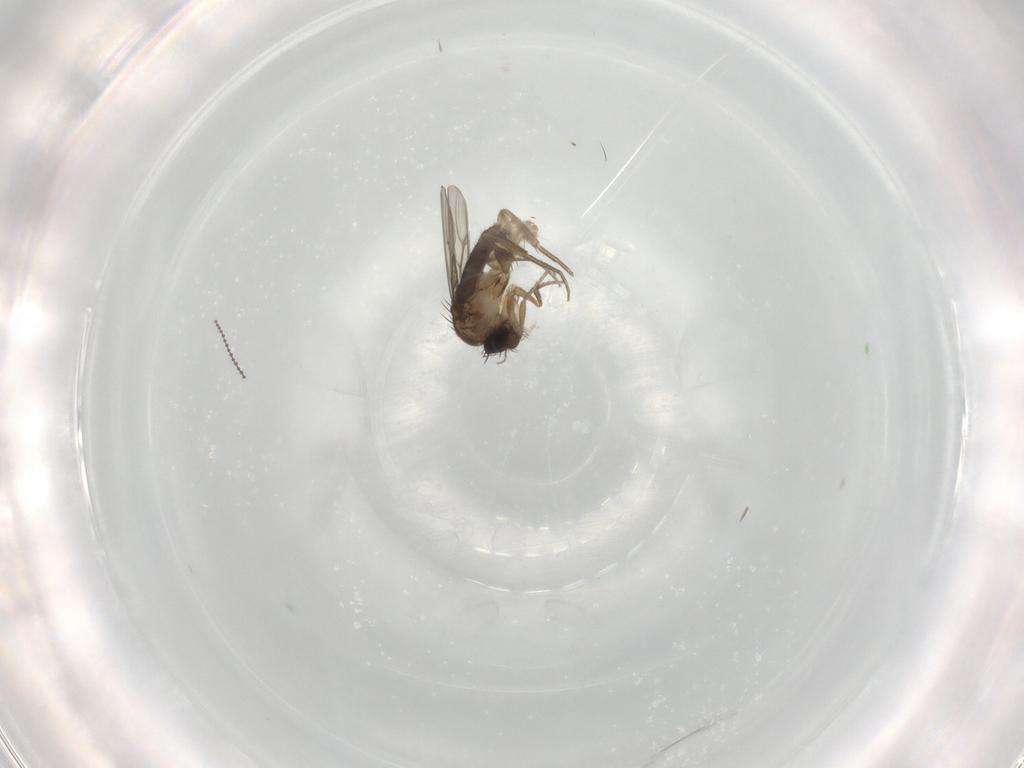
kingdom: Animalia
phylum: Arthropoda
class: Insecta
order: Diptera
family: Phoridae
